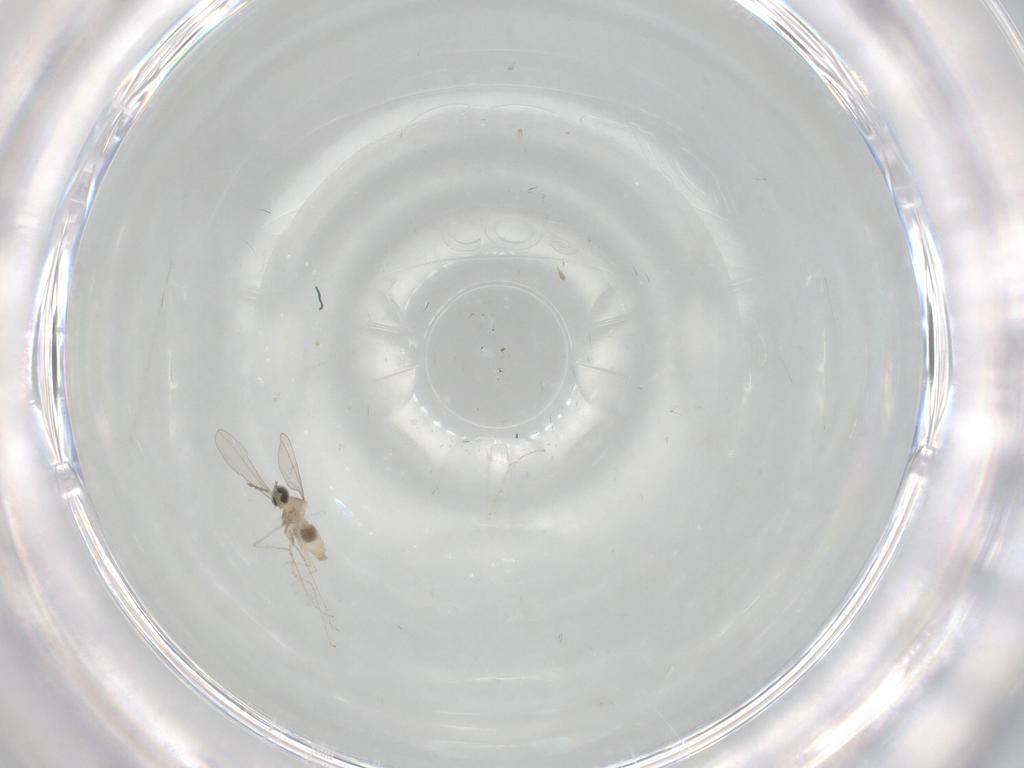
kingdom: Animalia
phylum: Arthropoda
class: Insecta
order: Diptera
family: Cecidomyiidae
